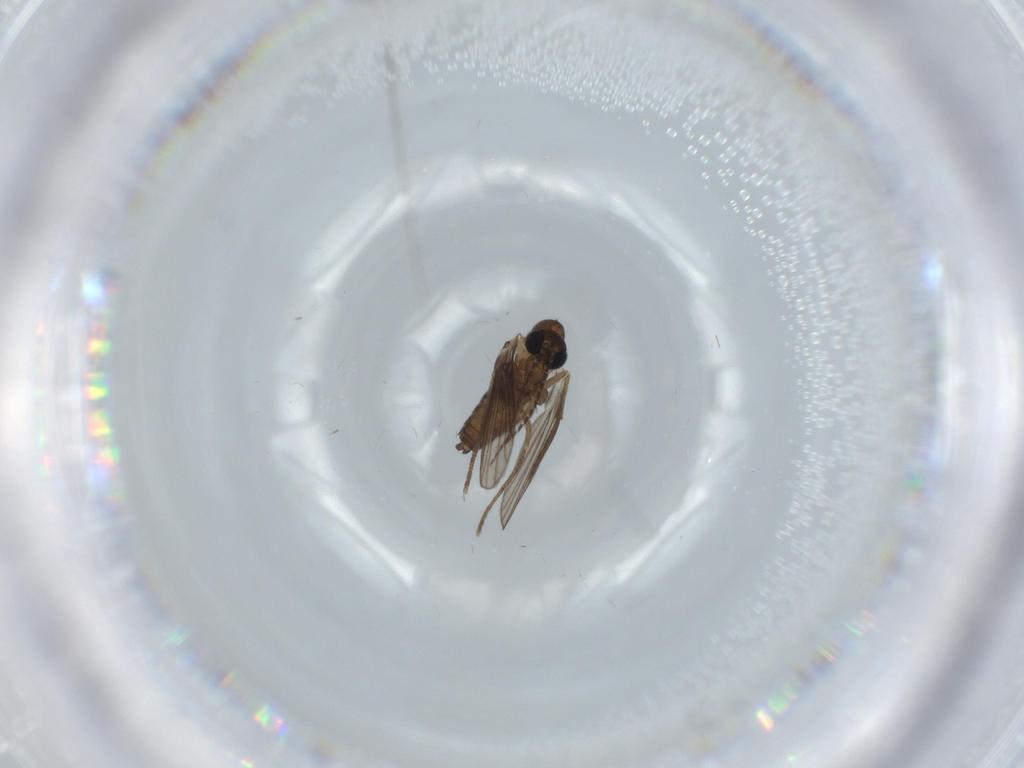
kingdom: Animalia
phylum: Arthropoda
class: Insecta
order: Diptera
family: Psychodidae
